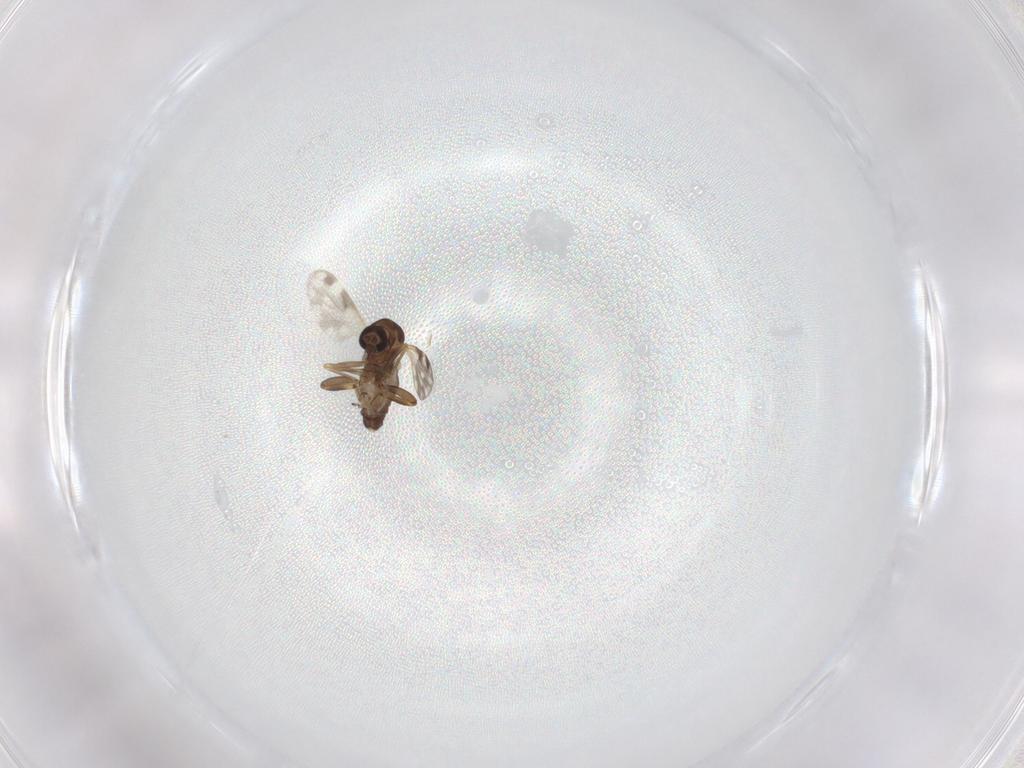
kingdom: Animalia
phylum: Arthropoda
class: Insecta
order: Diptera
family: Ceratopogonidae
